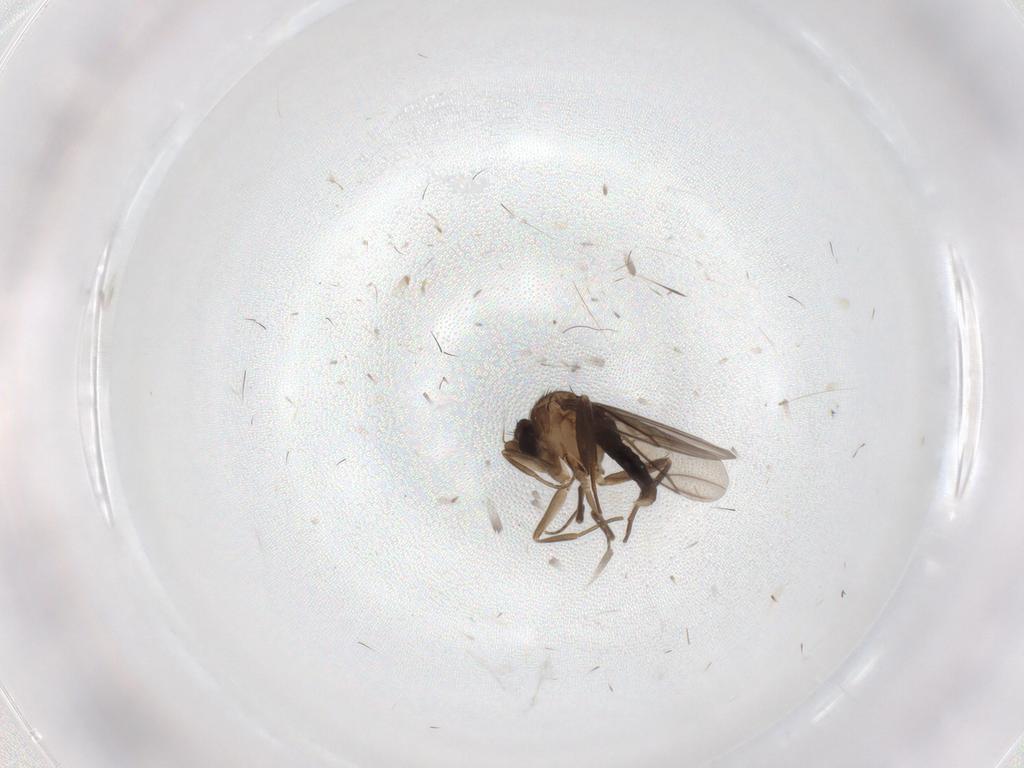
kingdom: Animalia
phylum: Arthropoda
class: Insecta
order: Diptera
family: Phoridae
